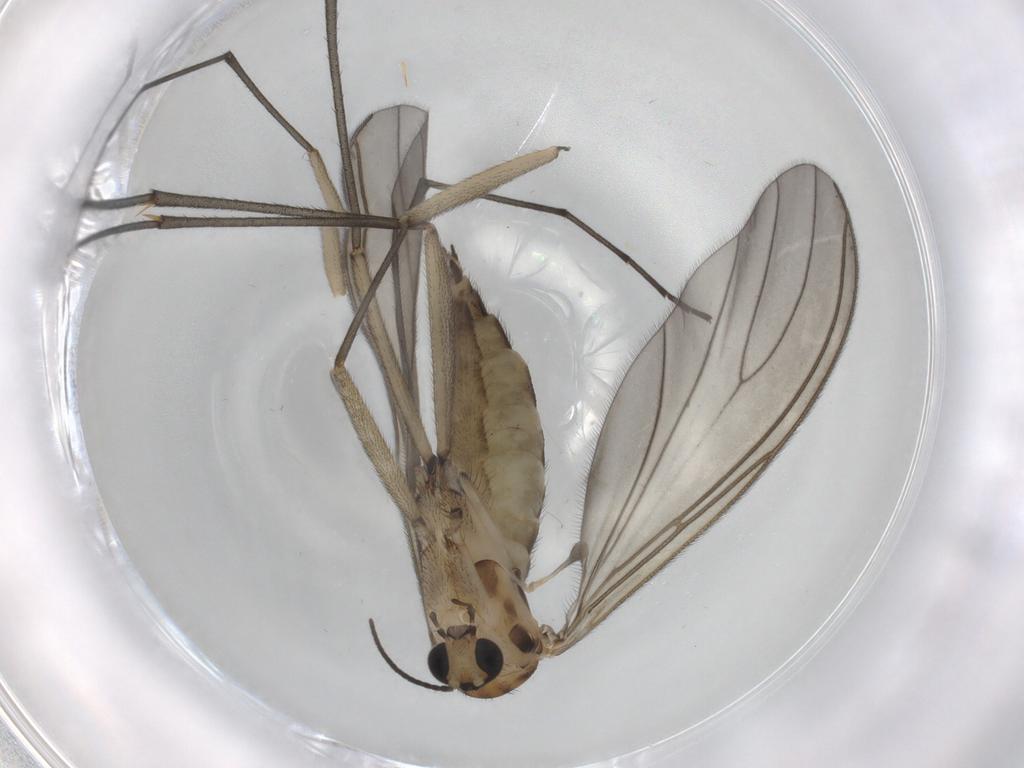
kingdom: Animalia
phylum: Arthropoda
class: Insecta
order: Diptera
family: Sciaridae
